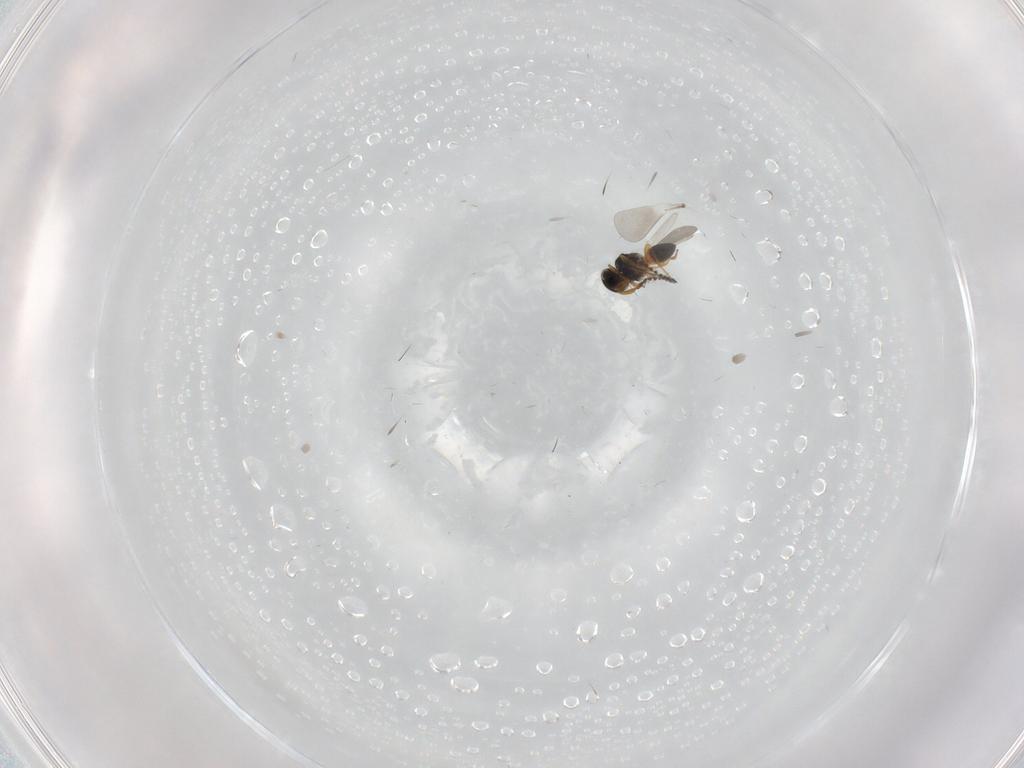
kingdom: Animalia
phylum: Arthropoda
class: Insecta
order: Hymenoptera
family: Platygastridae
